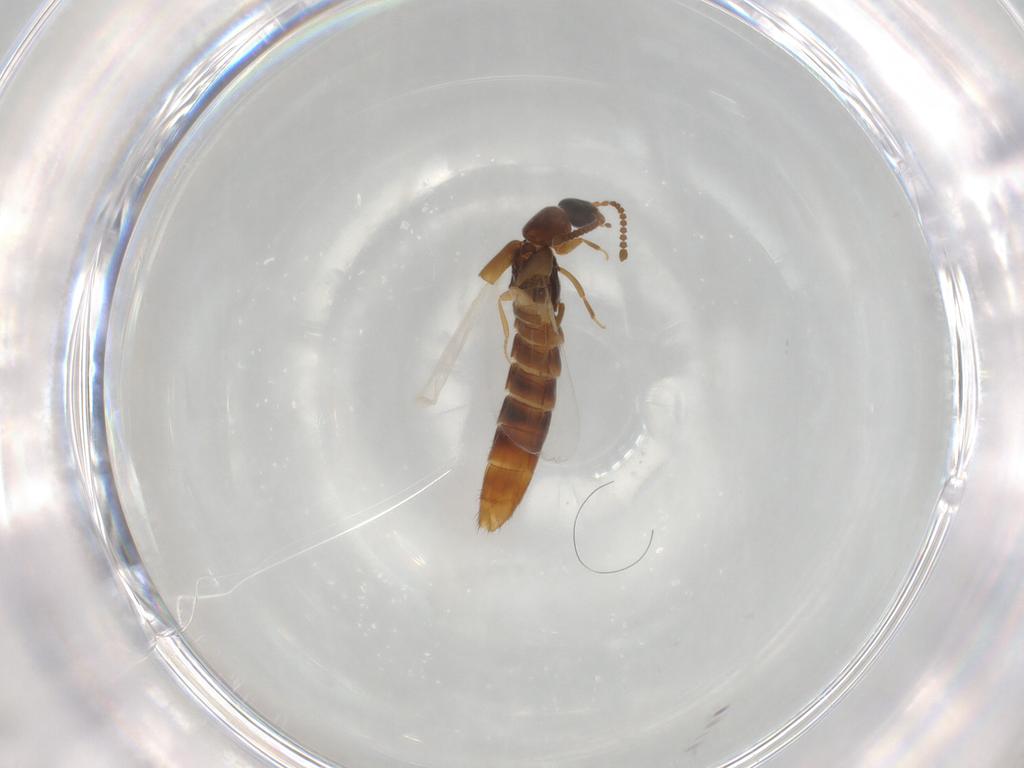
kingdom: Animalia
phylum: Arthropoda
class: Insecta
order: Coleoptera
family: Staphylinidae
